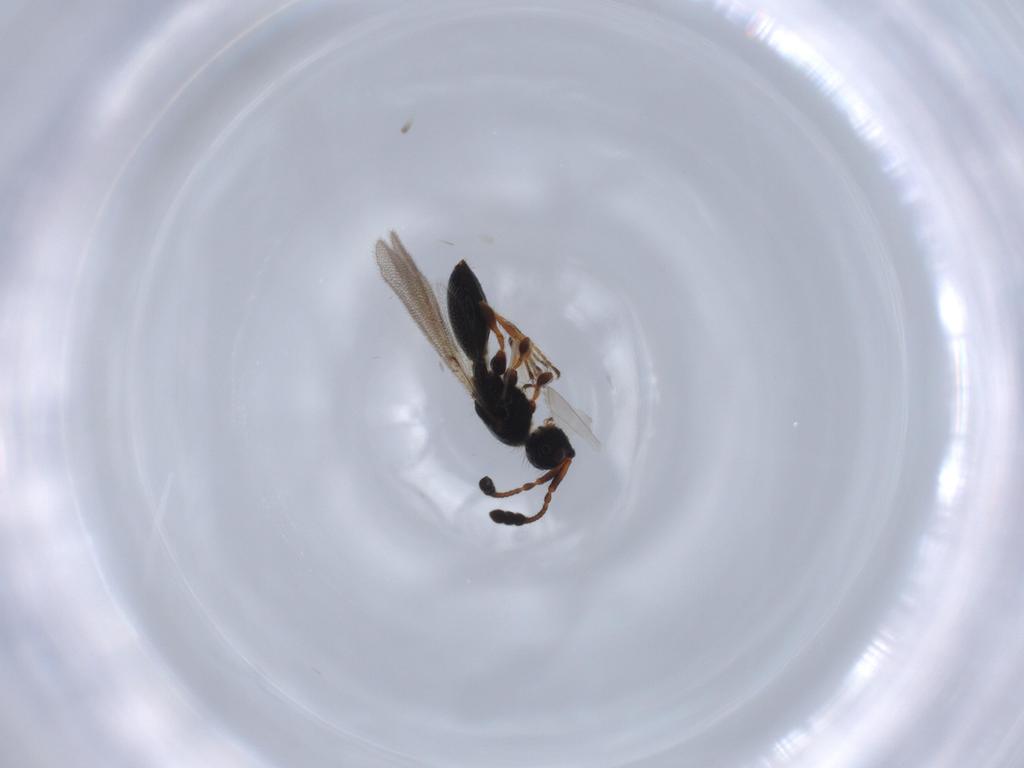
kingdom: Animalia
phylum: Arthropoda
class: Insecta
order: Hymenoptera
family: Diapriidae
